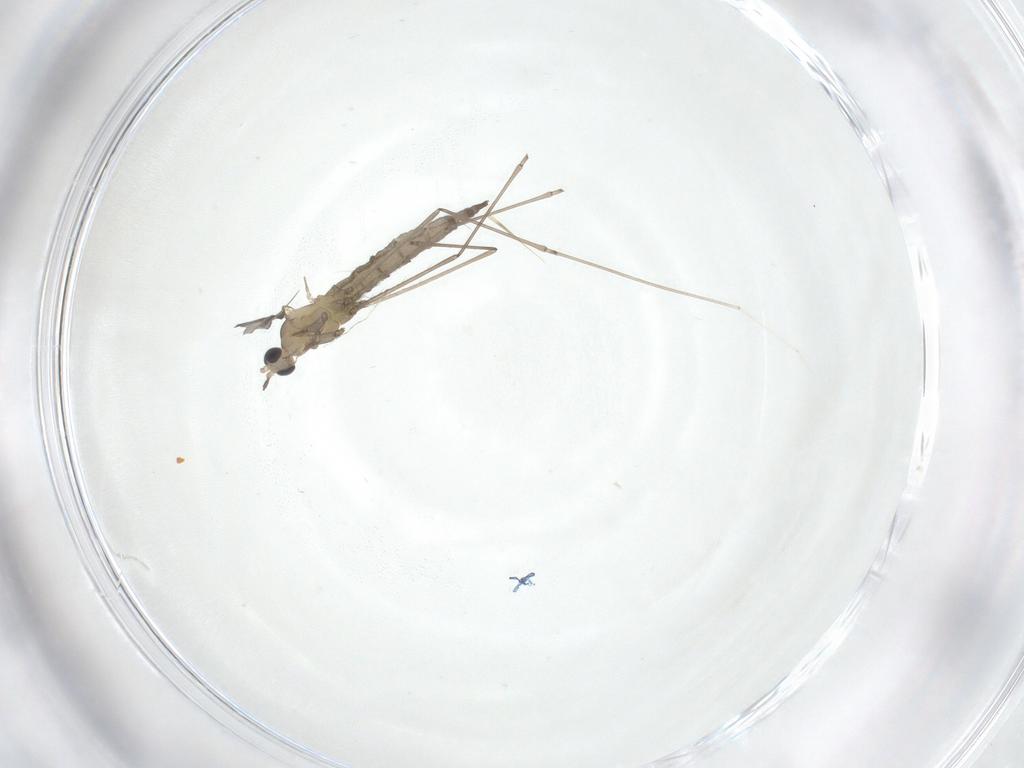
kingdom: Animalia
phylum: Arthropoda
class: Insecta
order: Diptera
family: Cecidomyiidae
